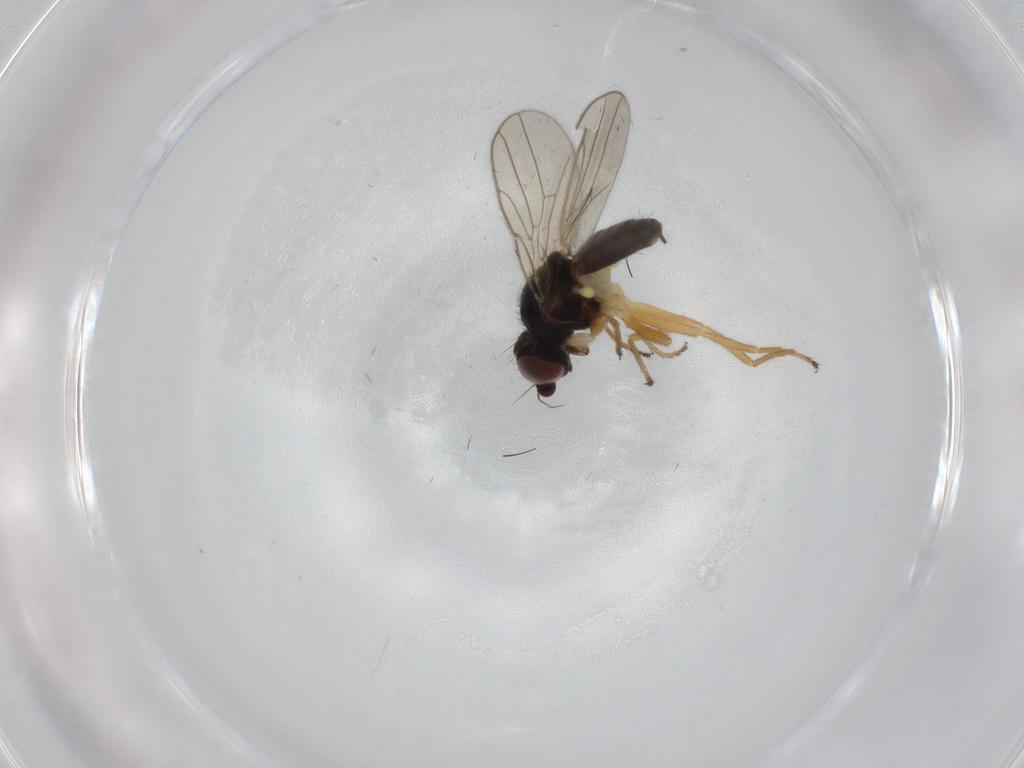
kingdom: Animalia
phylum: Arthropoda
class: Insecta
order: Diptera
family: Chloropidae
